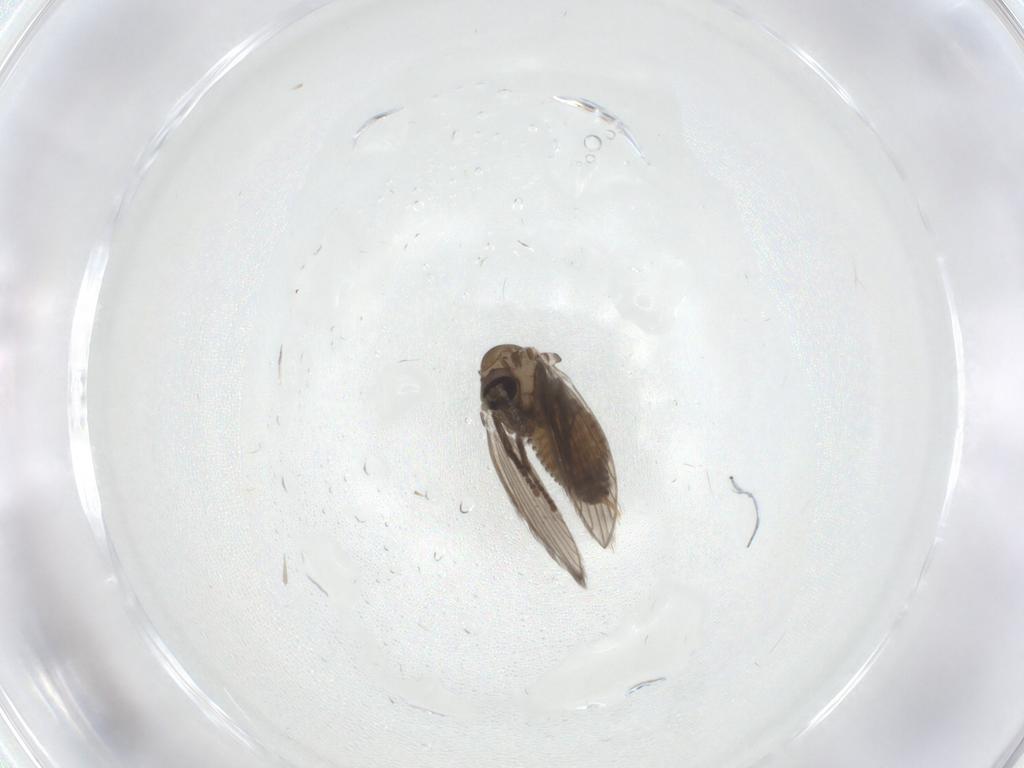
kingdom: Animalia
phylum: Arthropoda
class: Insecta
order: Diptera
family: Psychodidae
